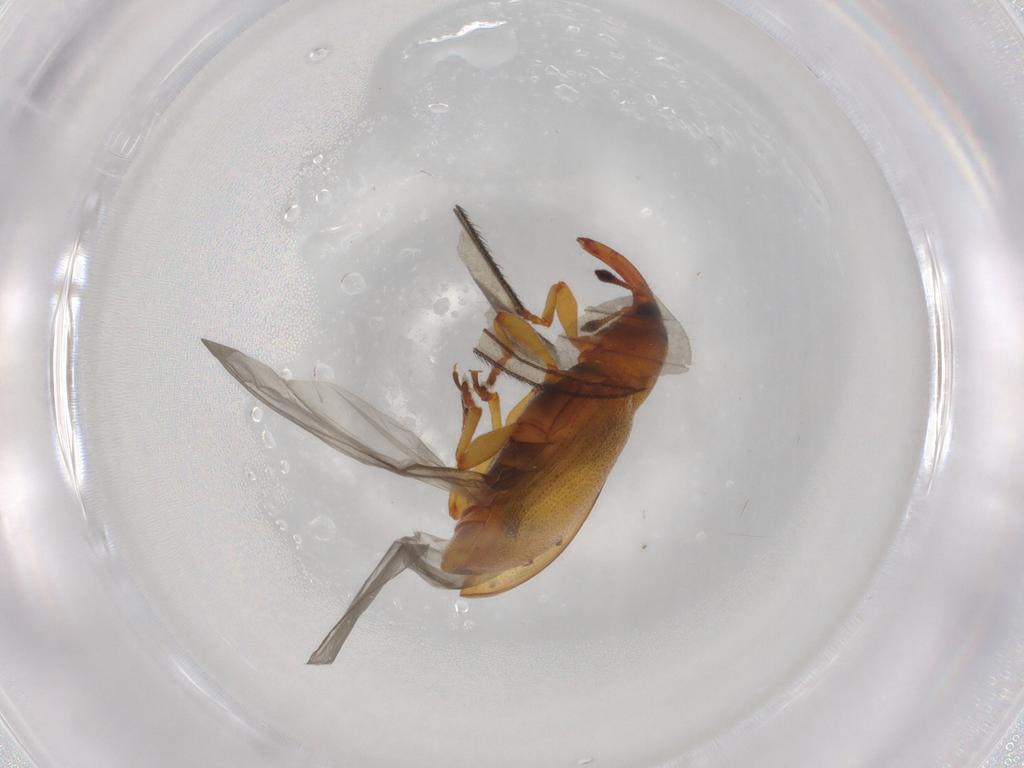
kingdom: Animalia
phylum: Arthropoda
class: Insecta
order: Coleoptera
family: Curculionidae
